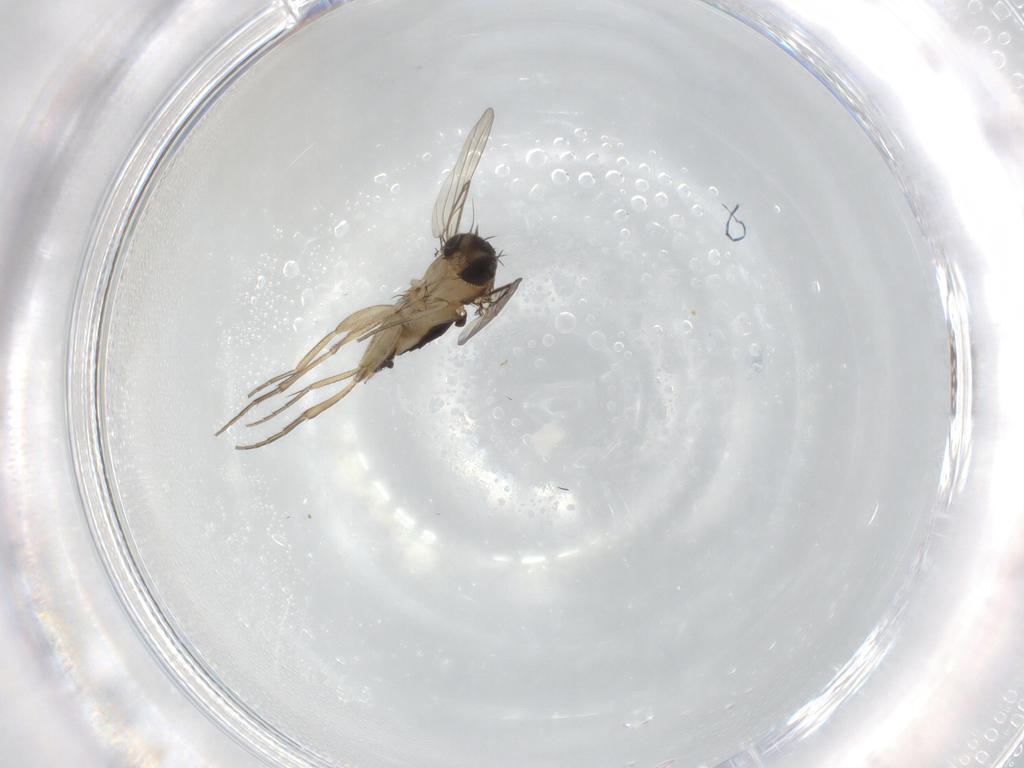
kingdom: Animalia
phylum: Arthropoda
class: Insecta
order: Diptera
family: Phoridae
